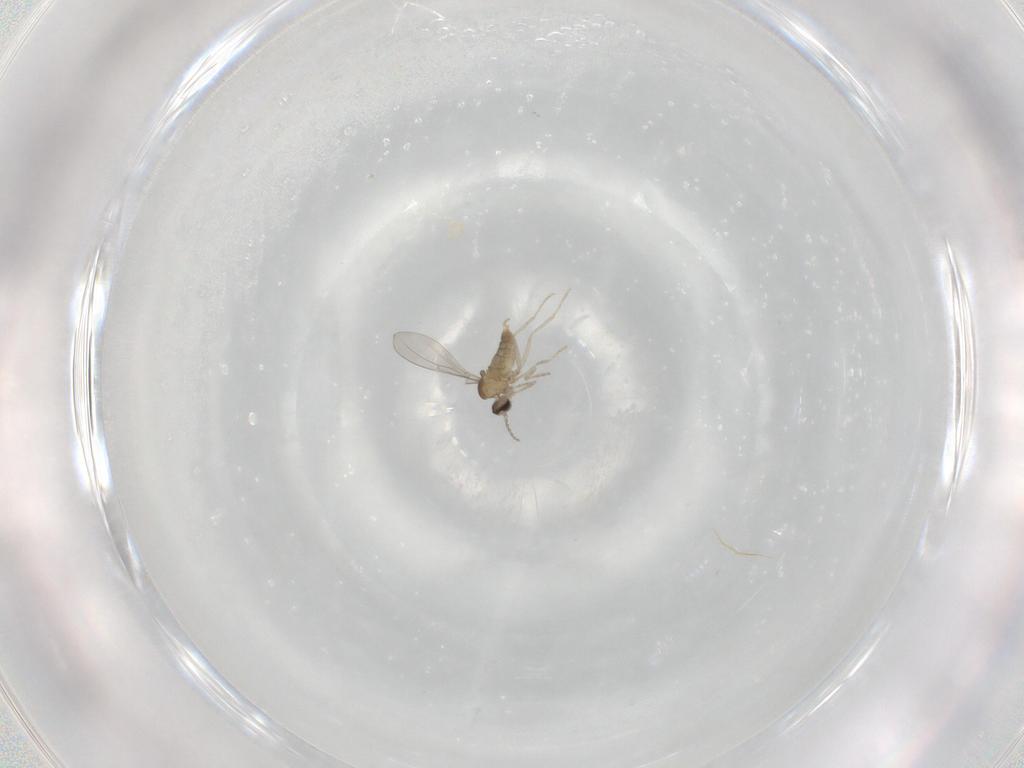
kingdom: Animalia
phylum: Arthropoda
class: Insecta
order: Diptera
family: Cecidomyiidae
